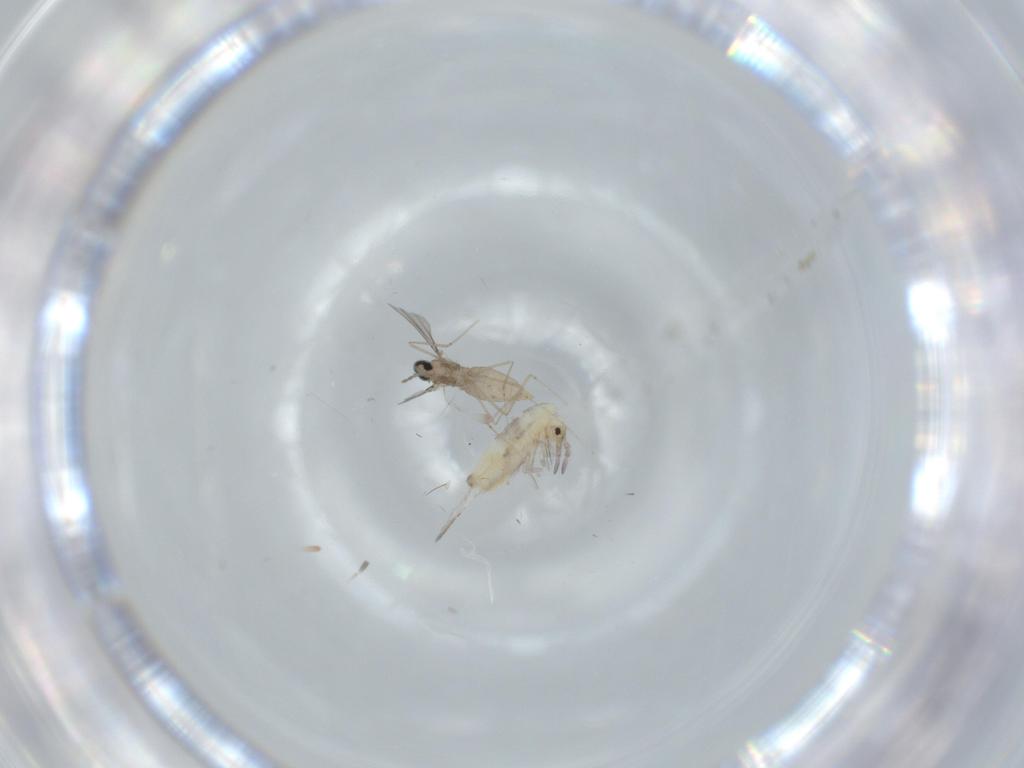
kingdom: Animalia
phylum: Arthropoda
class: Insecta
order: Diptera
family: Chironomidae
